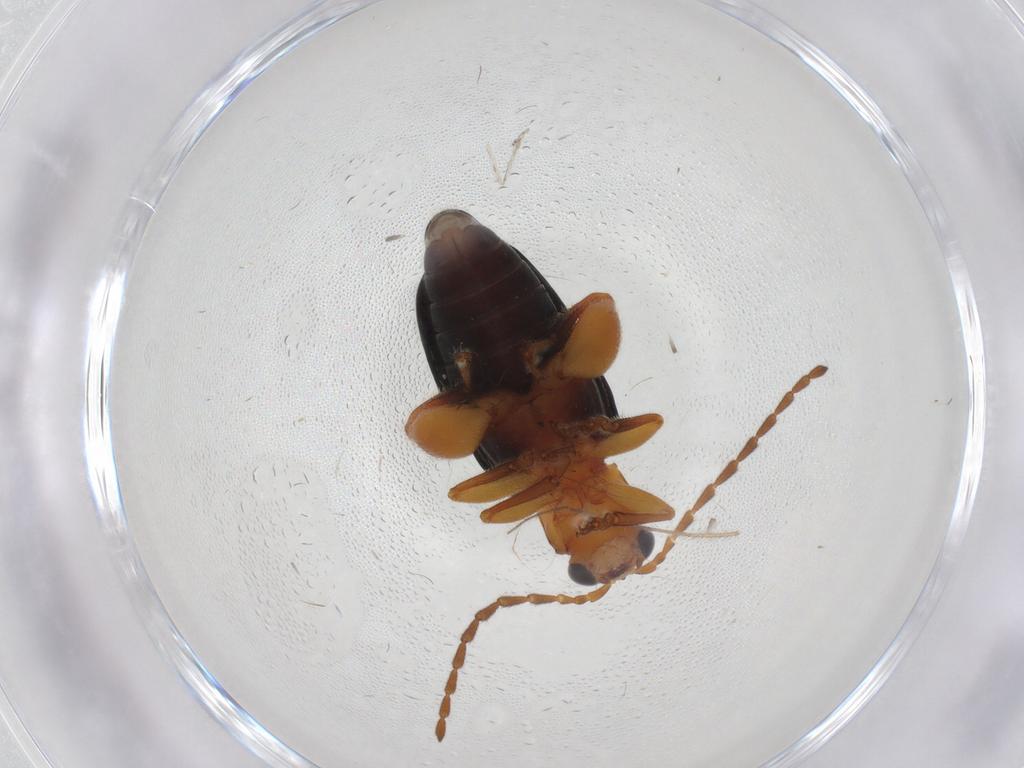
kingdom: Animalia
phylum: Arthropoda
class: Insecta
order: Coleoptera
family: Chrysomelidae
